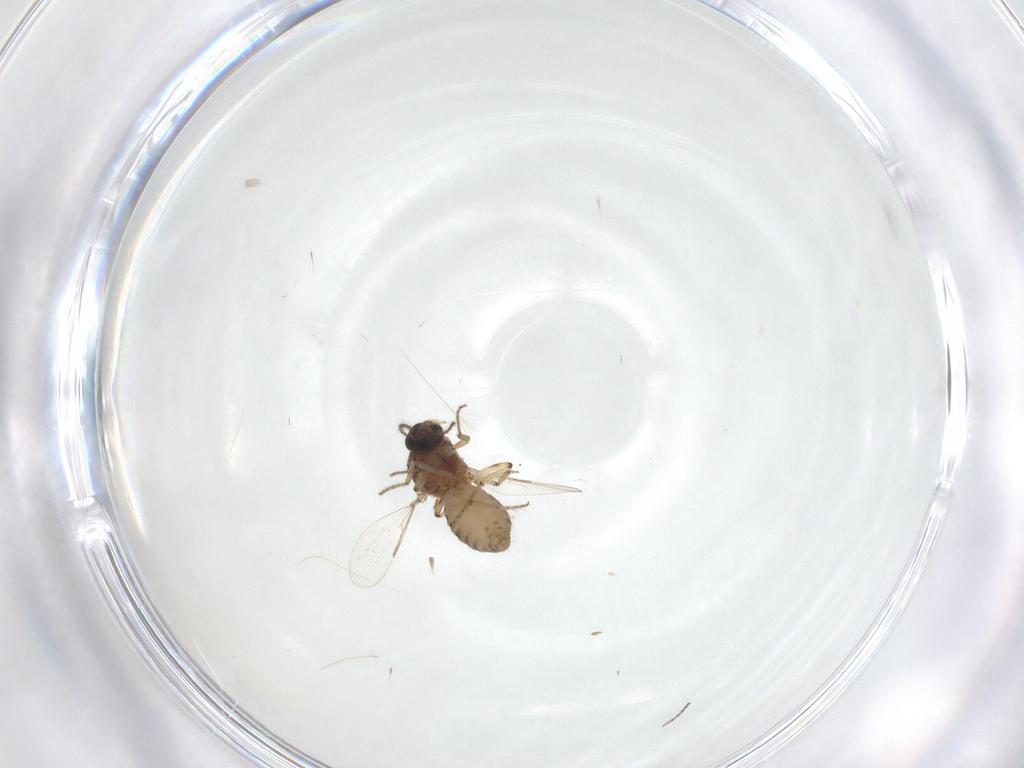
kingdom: Animalia
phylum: Arthropoda
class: Insecta
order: Diptera
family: Ceratopogonidae
